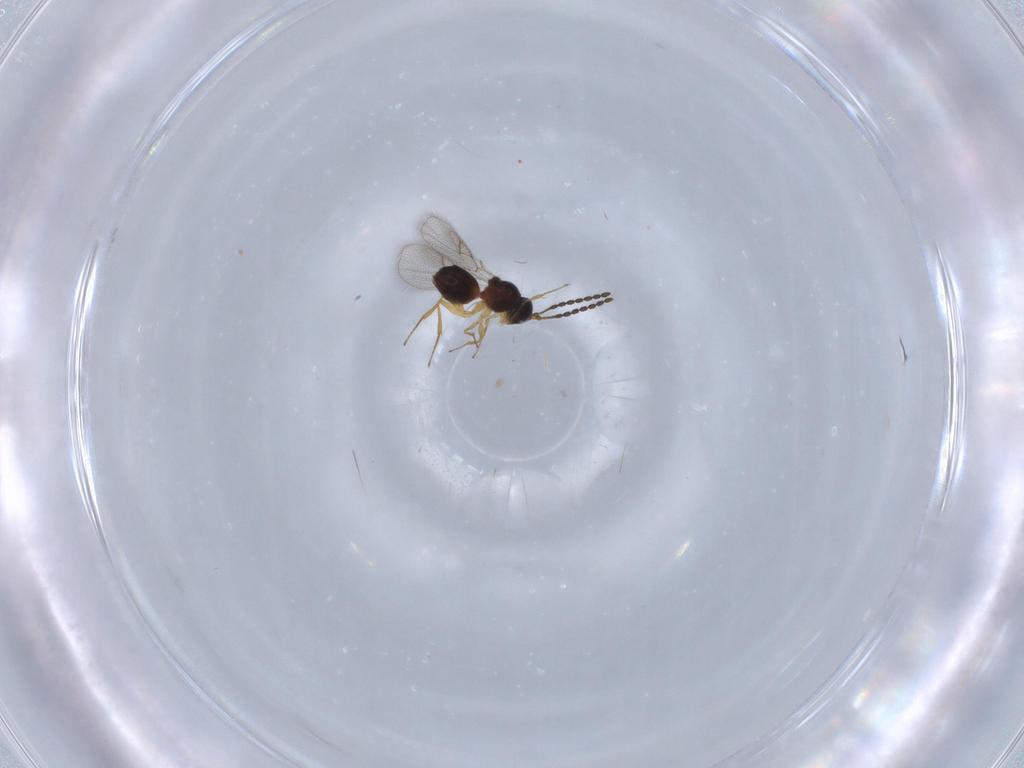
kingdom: Animalia
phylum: Arthropoda
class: Insecta
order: Hymenoptera
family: Figitidae
